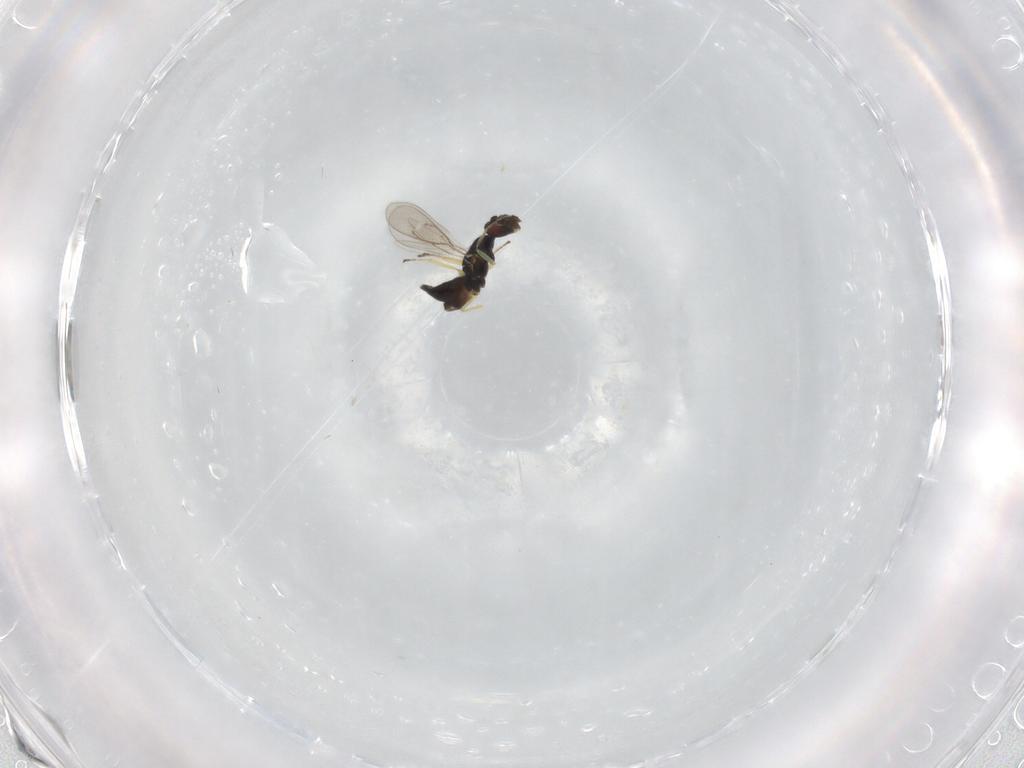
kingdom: Animalia
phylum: Arthropoda
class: Insecta
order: Hymenoptera
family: Eulophidae
